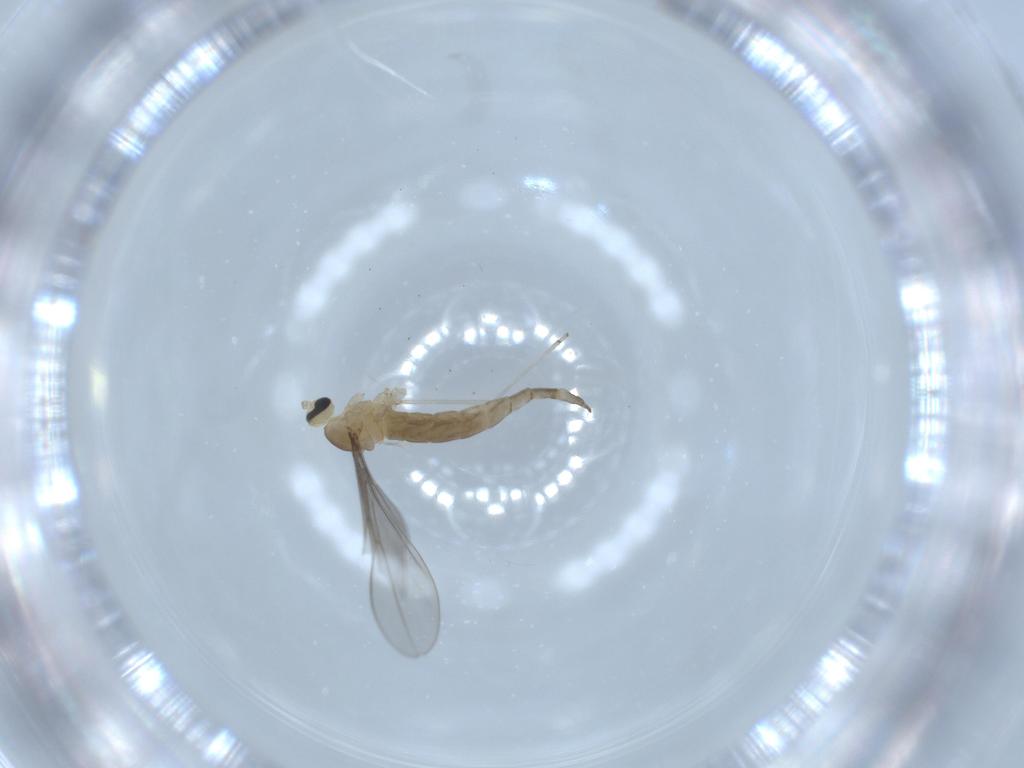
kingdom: Animalia
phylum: Arthropoda
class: Insecta
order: Diptera
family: Cecidomyiidae
